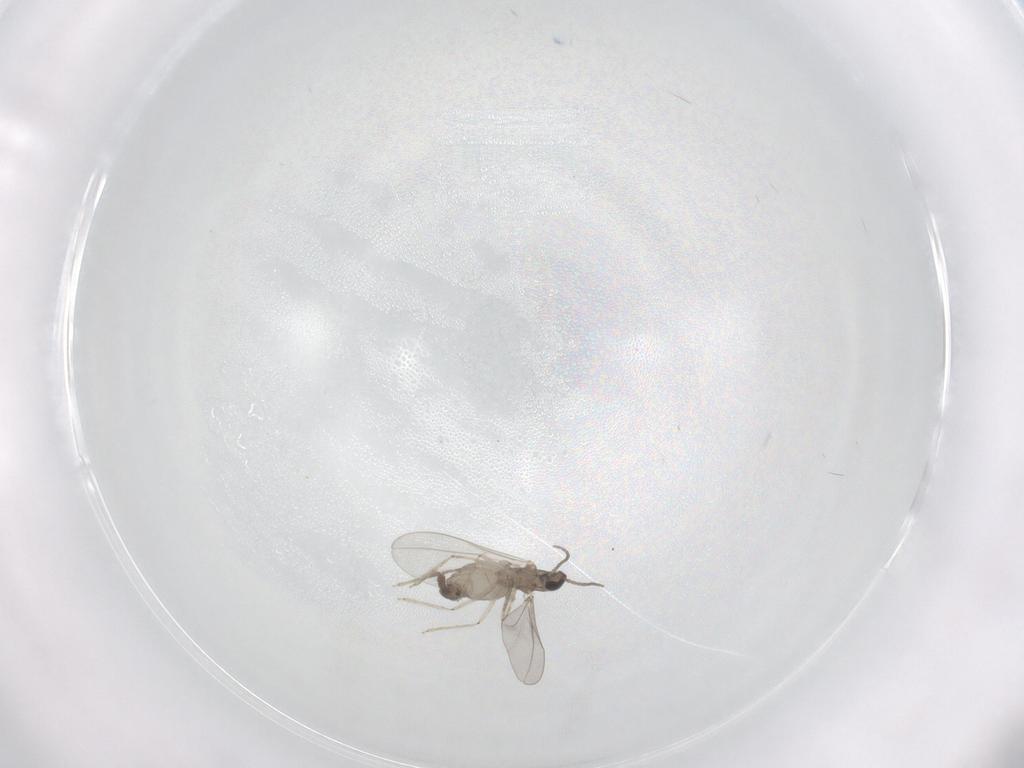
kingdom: Animalia
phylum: Arthropoda
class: Insecta
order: Diptera
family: Cecidomyiidae
